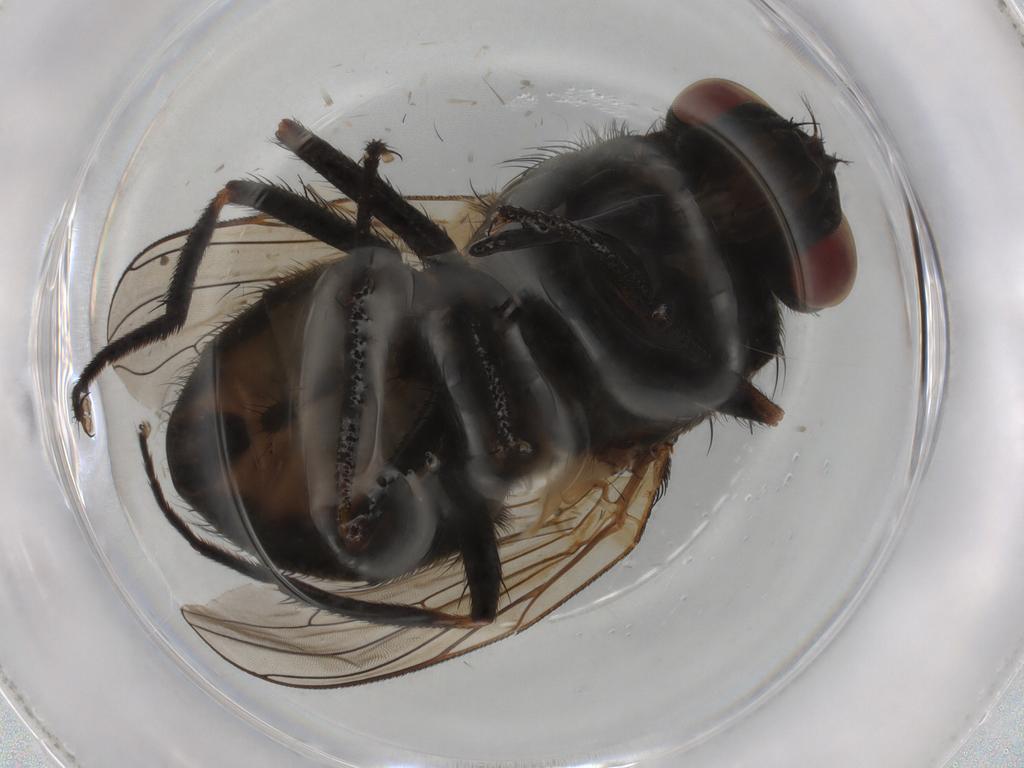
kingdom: Animalia
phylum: Arthropoda
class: Insecta
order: Diptera
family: Muscidae
